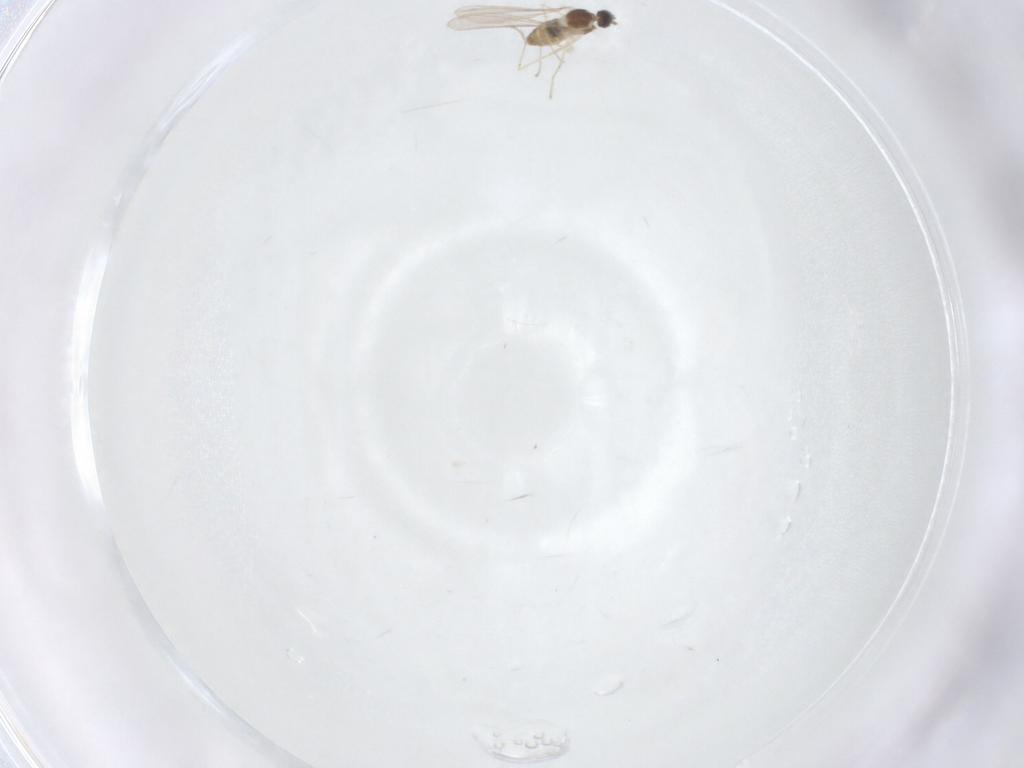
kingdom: Animalia
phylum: Arthropoda
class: Insecta
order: Diptera
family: Cecidomyiidae
